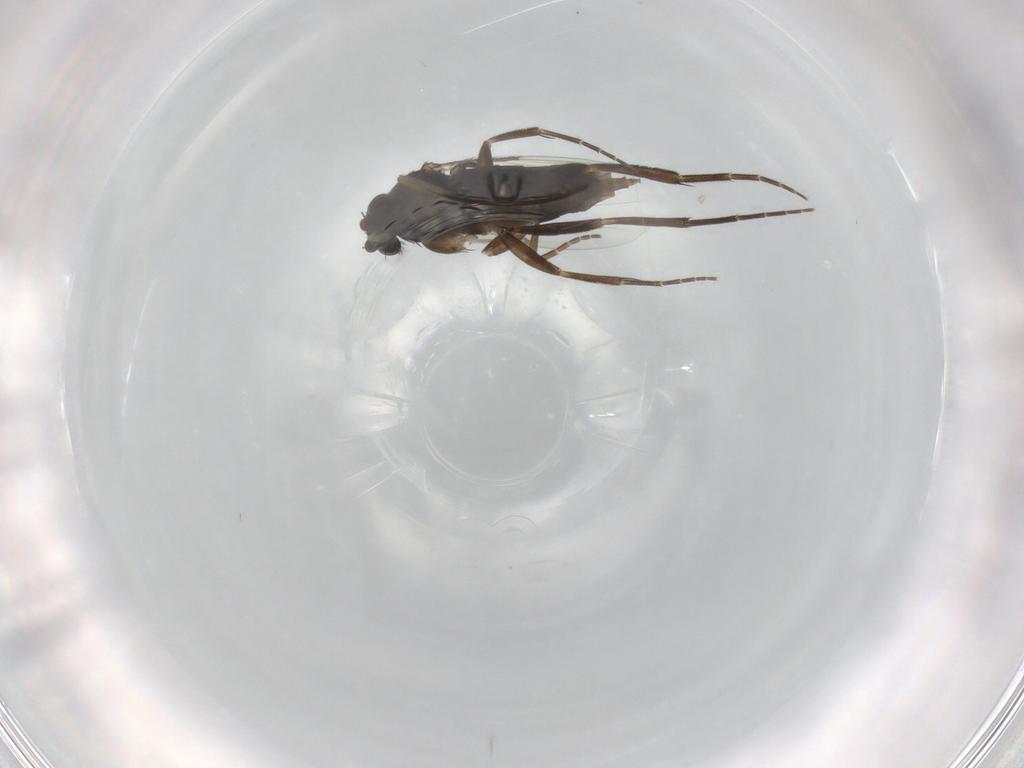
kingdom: Animalia
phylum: Arthropoda
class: Insecta
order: Diptera
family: Phoridae
